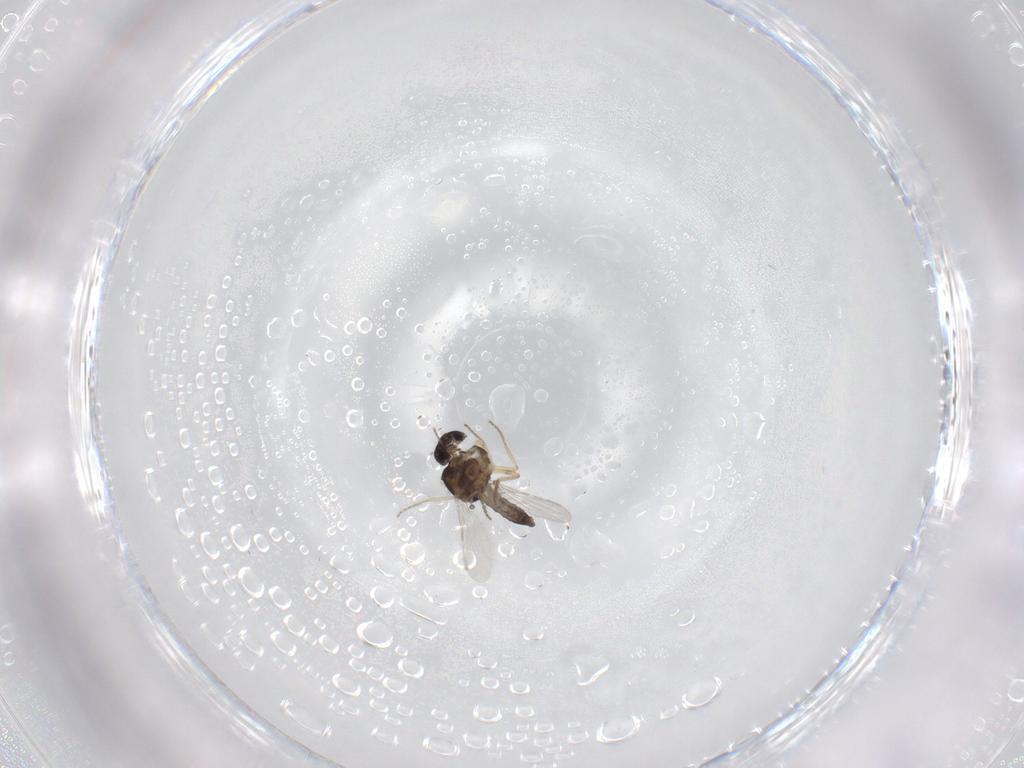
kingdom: Animalia
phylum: Arthropoda
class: Insecta
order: Diptera
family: Ceratopogonidae
